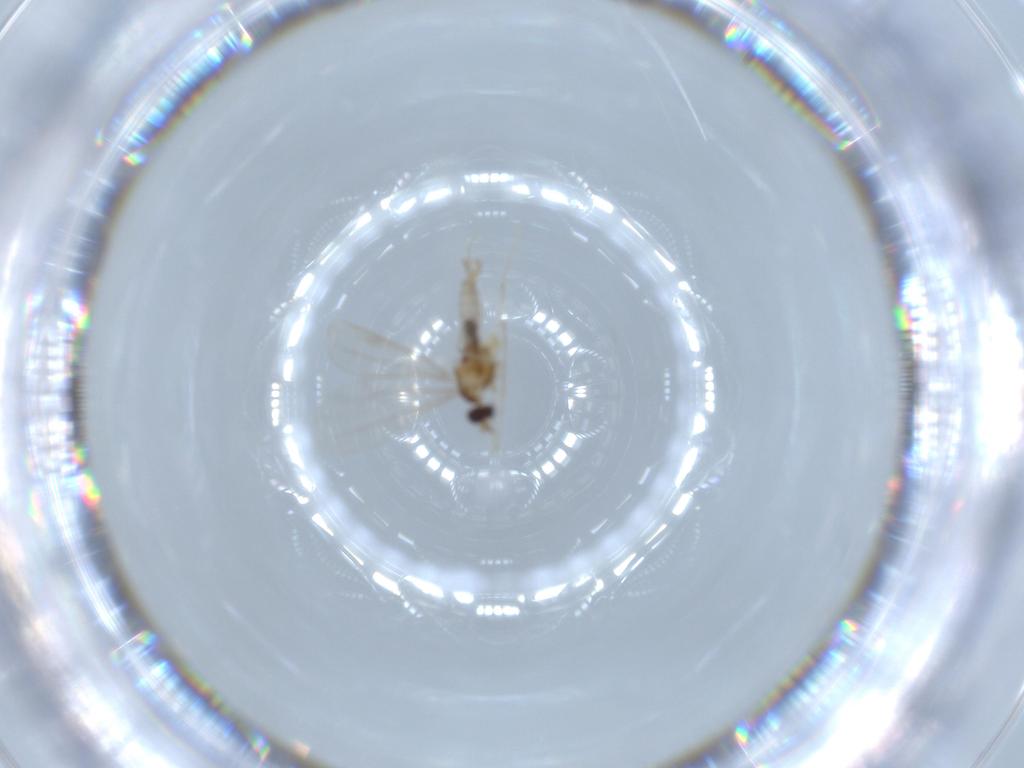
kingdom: Animalia
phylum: Arthropoda
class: Insecta
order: Diptera
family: Cecidomyiidae
